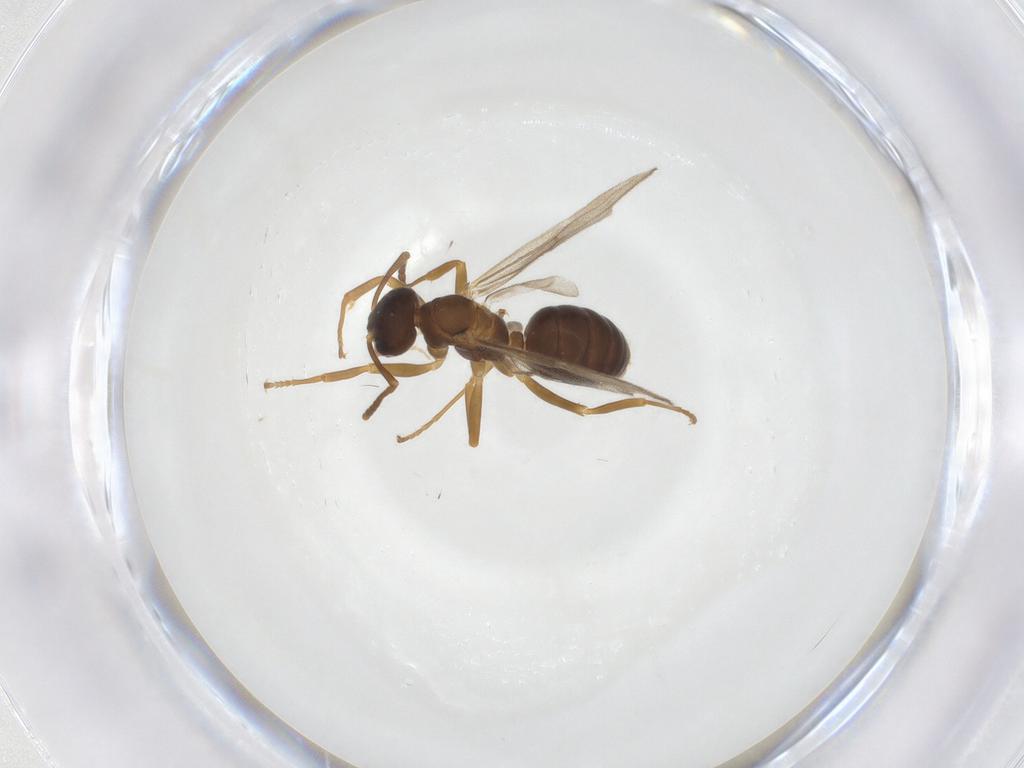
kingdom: Animalia
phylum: Arthropoda
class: Insecta
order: Hymenoptera
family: Formicidae
